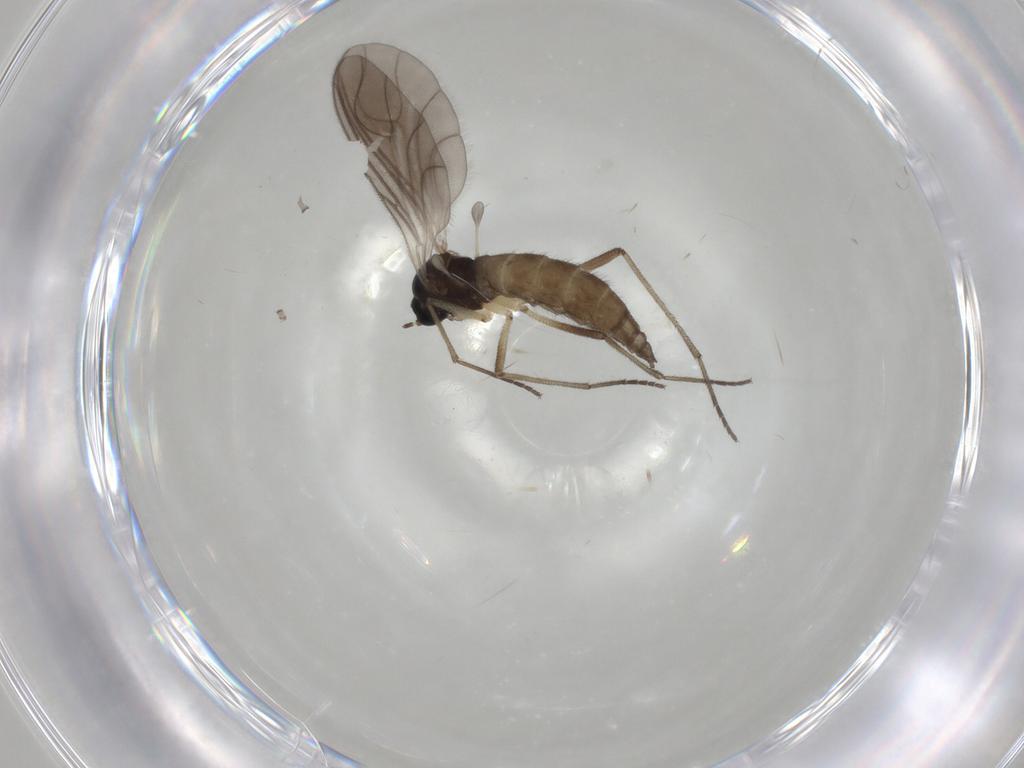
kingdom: Animalia
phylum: Arthropoda
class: Insecta
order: Diptera
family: Sciaridae
